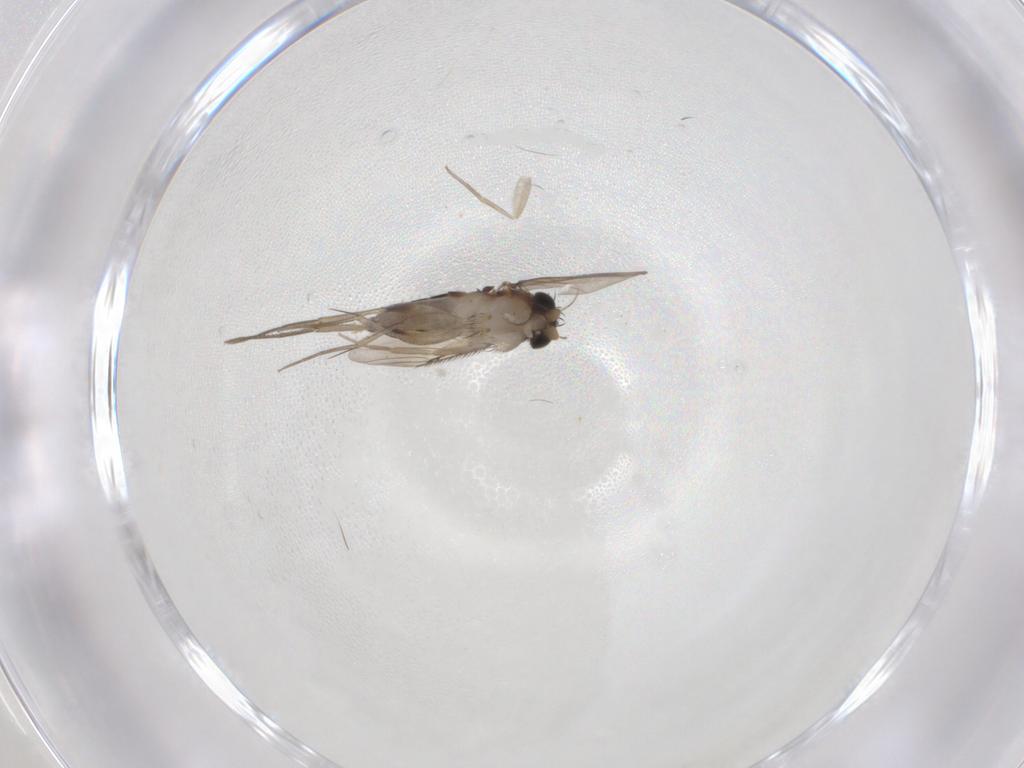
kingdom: Animalia
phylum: Arthropoda
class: Insecta
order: Diptera
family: Phoridae
